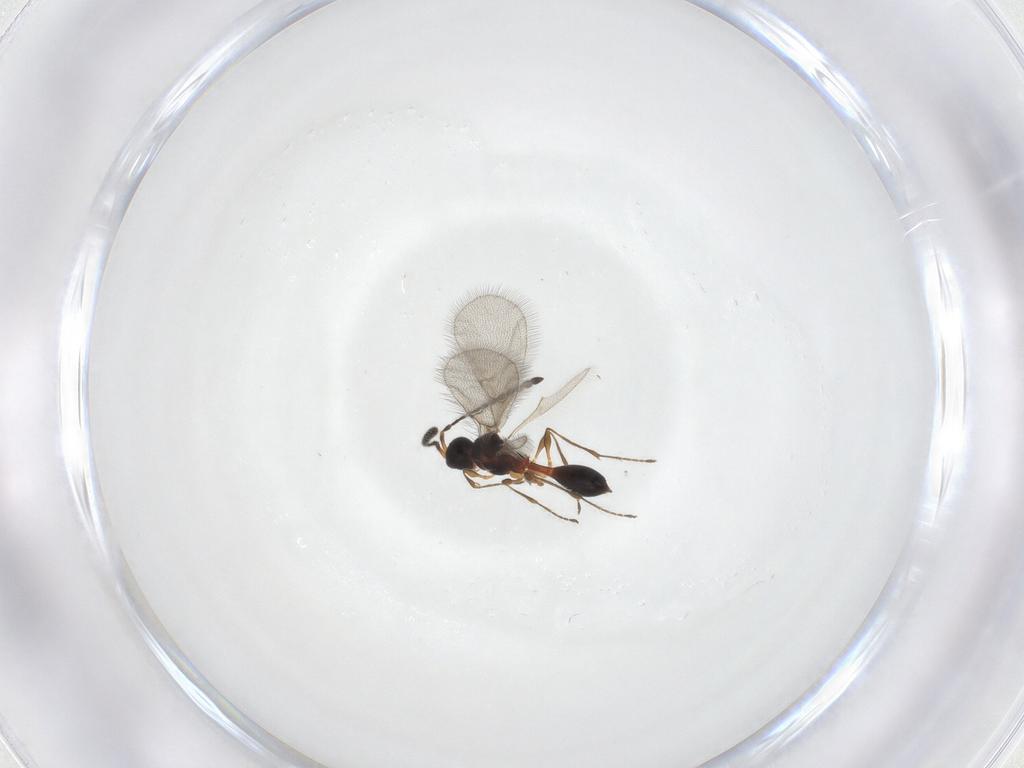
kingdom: Animalia
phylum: Arthropoda
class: Insecta
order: Hymenoptera
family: Diapriidae
